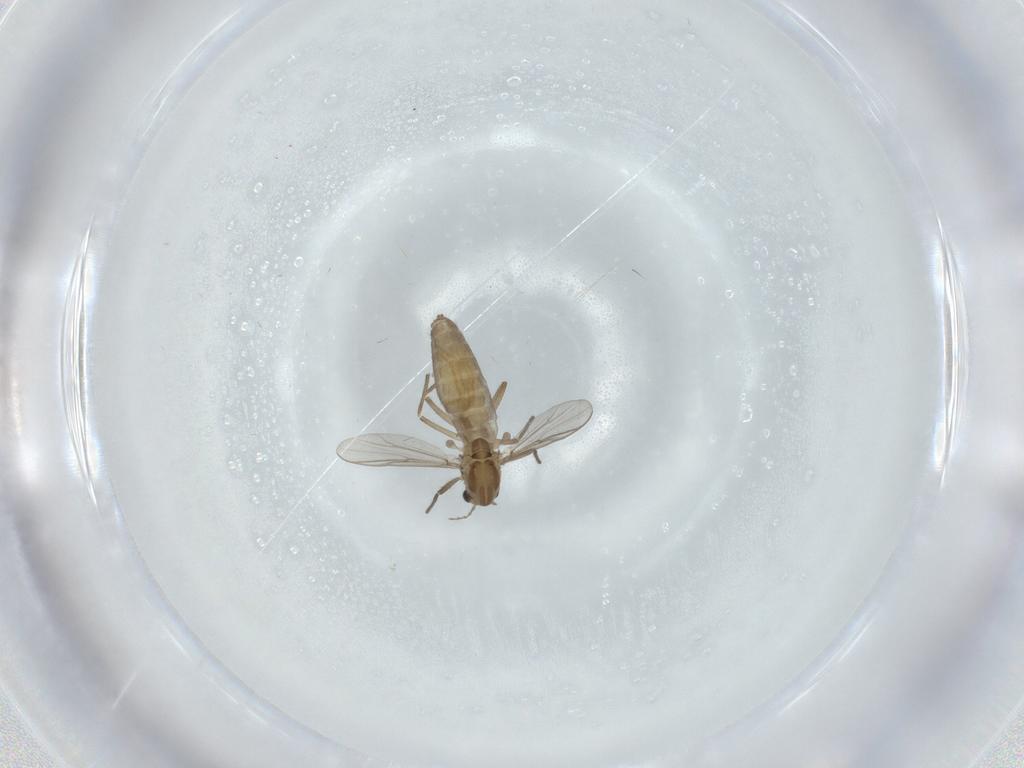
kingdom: Animalia
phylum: Arthropoda
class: Insecta
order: Diptera
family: Chironomidae
